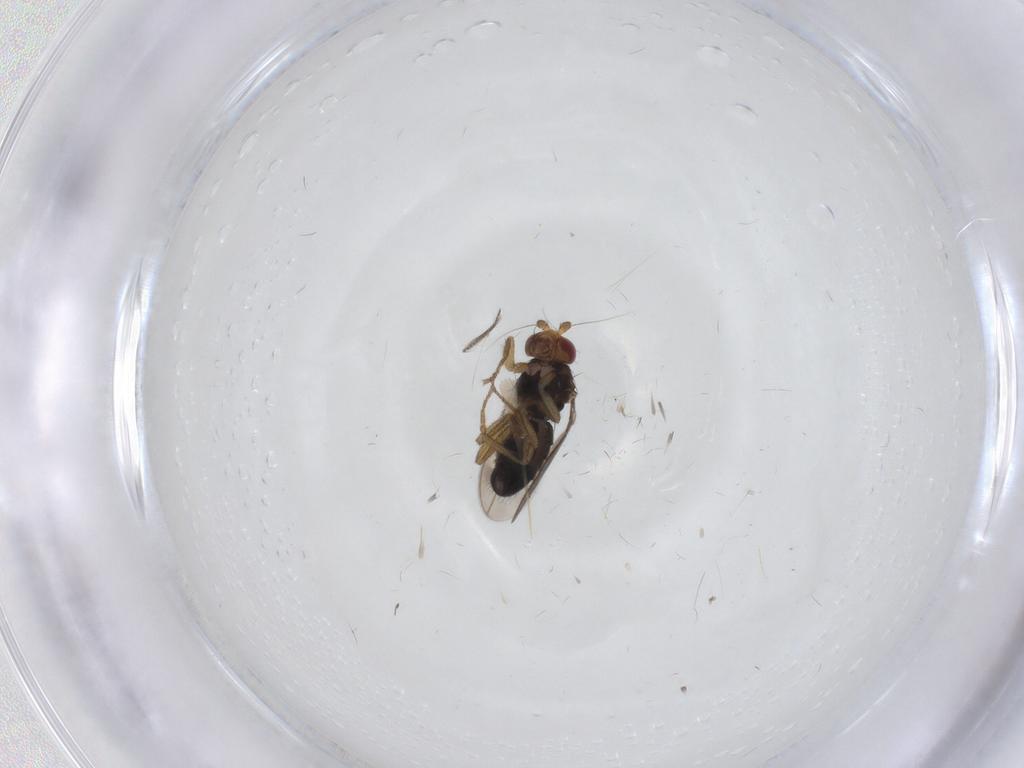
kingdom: Animalia
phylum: Arthropoda
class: Insecta
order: Diptera
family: Sphaeroceridae
